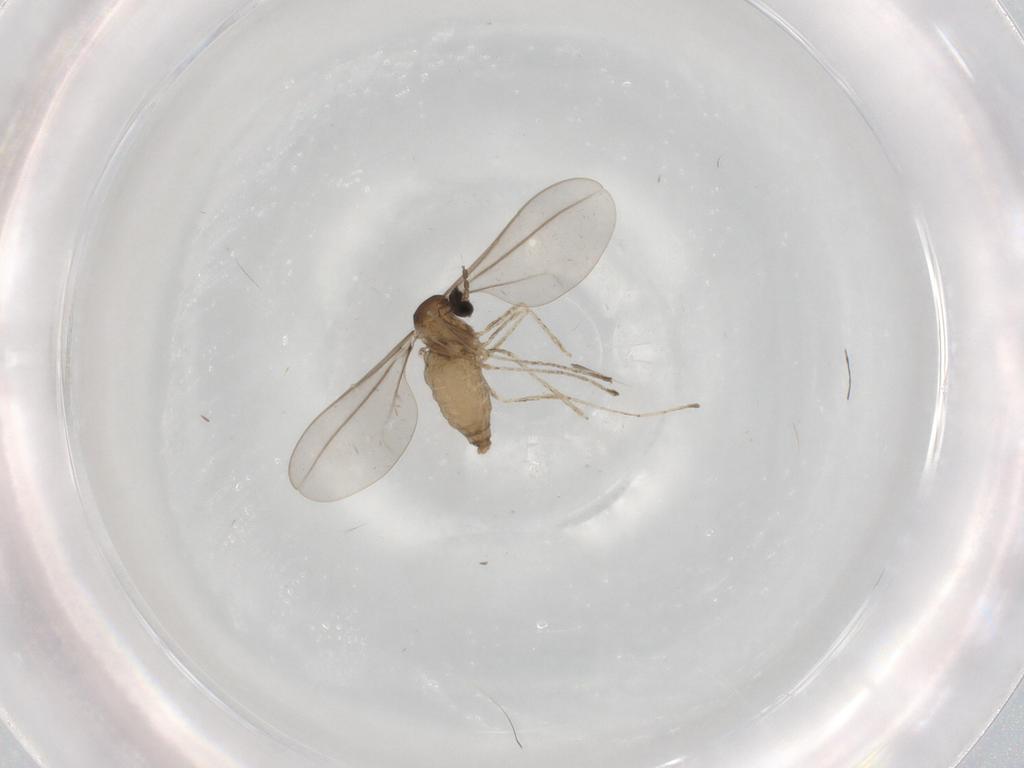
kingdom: Animalia
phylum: Arthropoda
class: Insecta
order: Diptera
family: Cecidomyiidae
